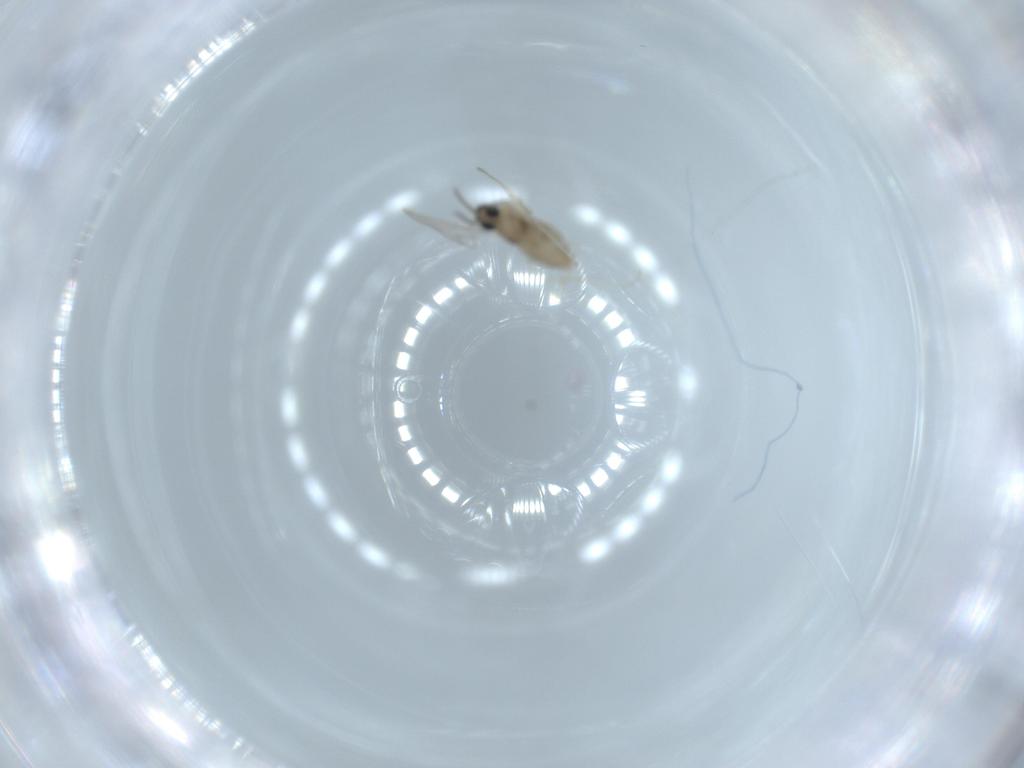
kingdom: Animalia
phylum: Arthropoda
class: Insecta
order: Diptera
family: Cecidomyiidae
